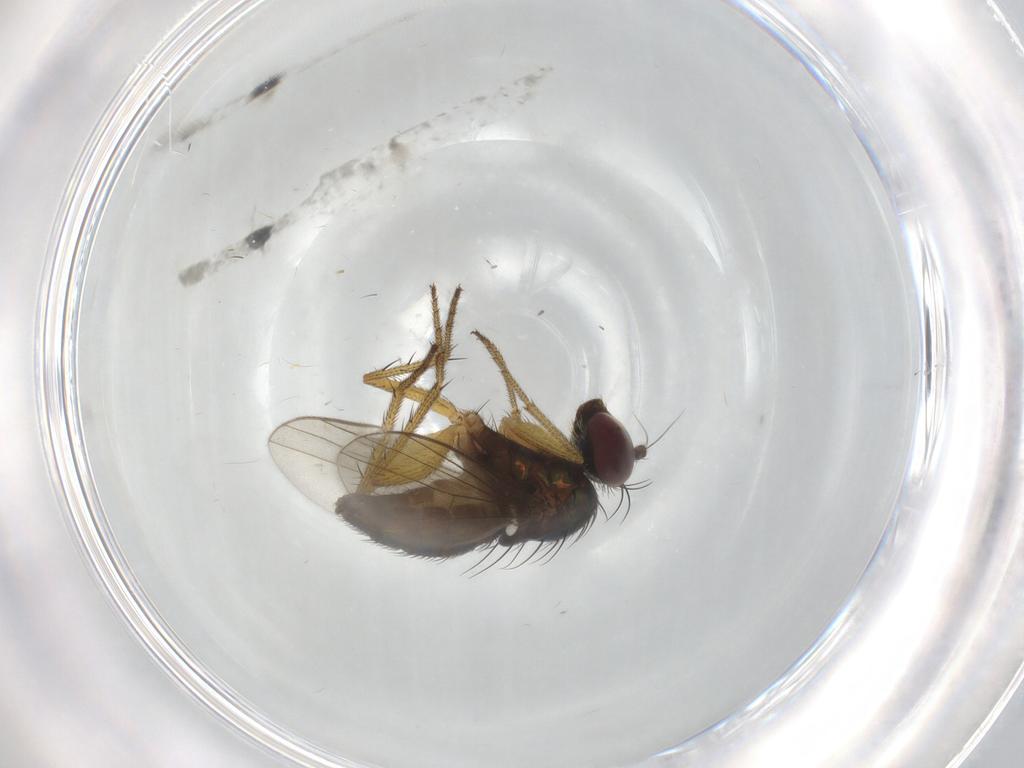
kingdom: Animalia
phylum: Arthropoda
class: Insecta
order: Diptera
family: Dolichopodidae
